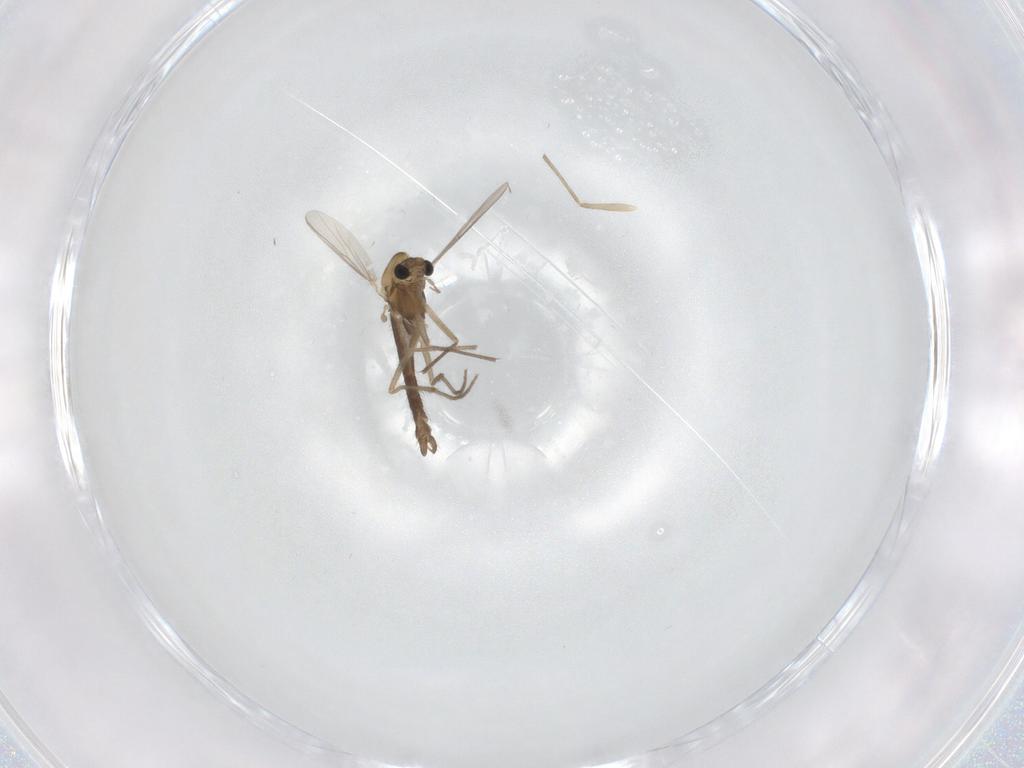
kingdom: Animalia
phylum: Arthropoda
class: Insecta
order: Diptera
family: Chironomidae
